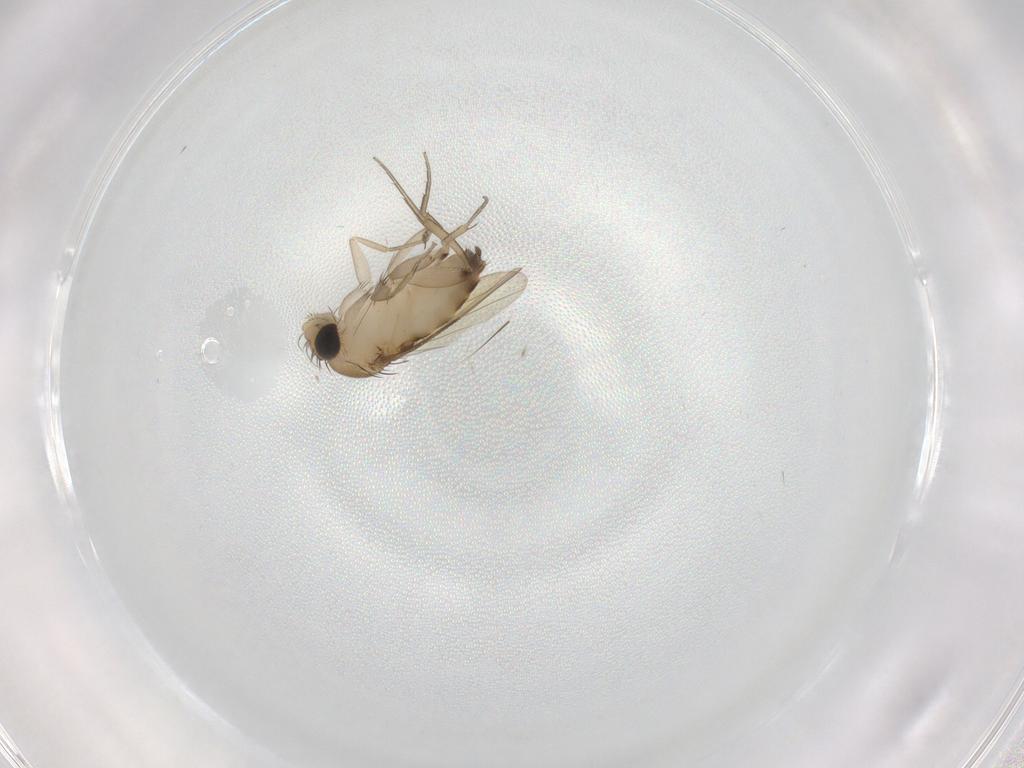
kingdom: Animalia
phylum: Arthropoda
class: Insecta
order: Diptera
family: Phoridae
